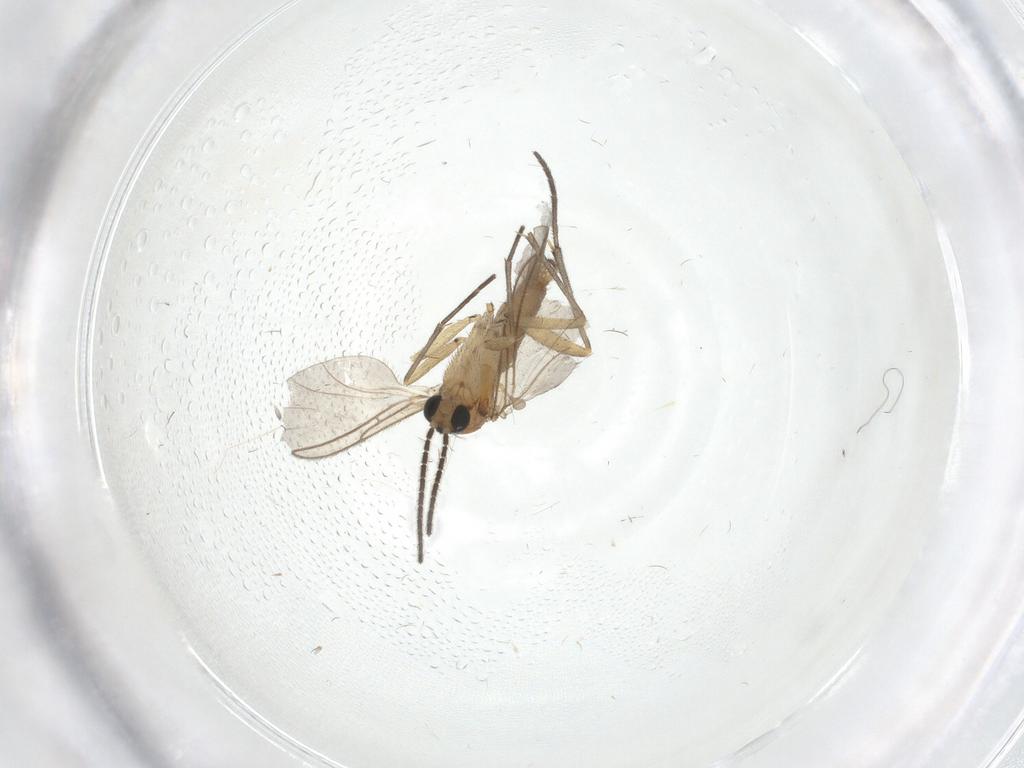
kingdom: Animalia
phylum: Arthropoda
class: Insecta
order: Diptera
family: Sciaridae
